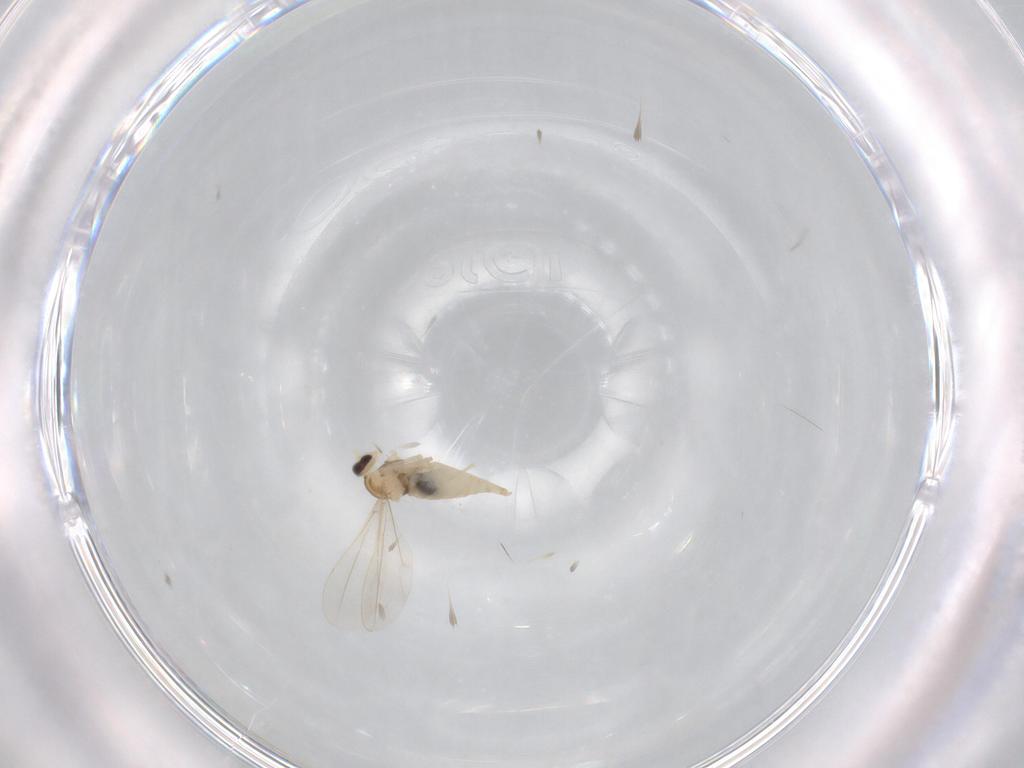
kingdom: Animalia
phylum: Arthropoda
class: Insecta
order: Diptera
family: Cecidomyiidae
